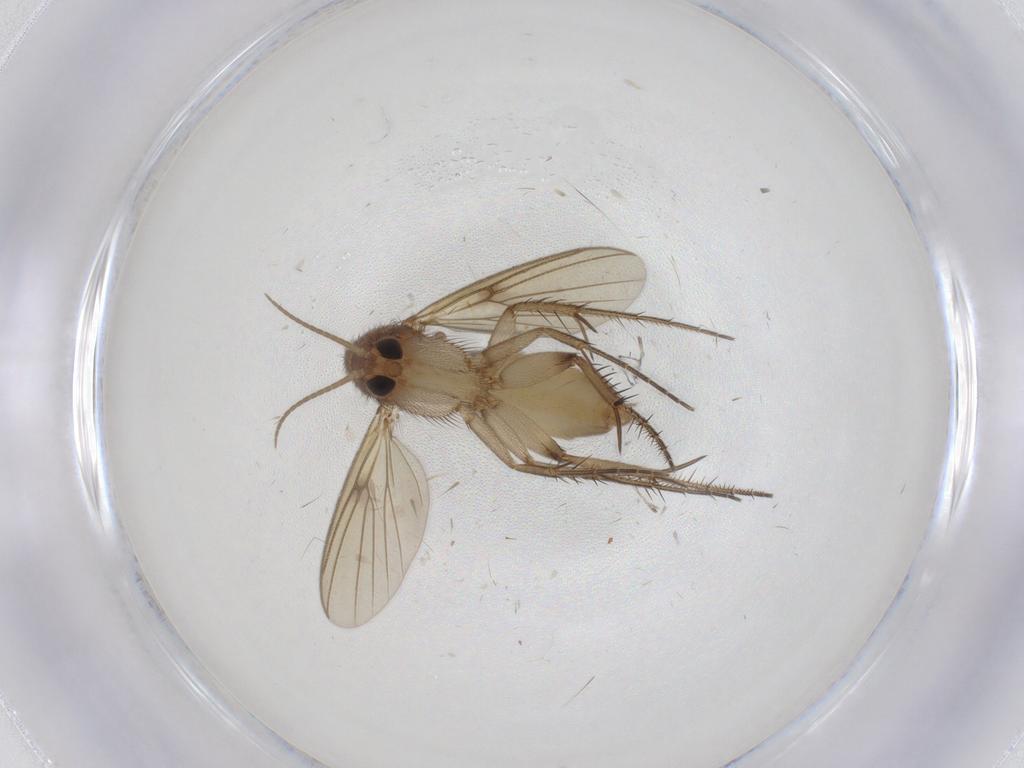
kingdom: Animalia
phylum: Arthropoda
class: Insecta
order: Diptera
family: Mycetophilidae
